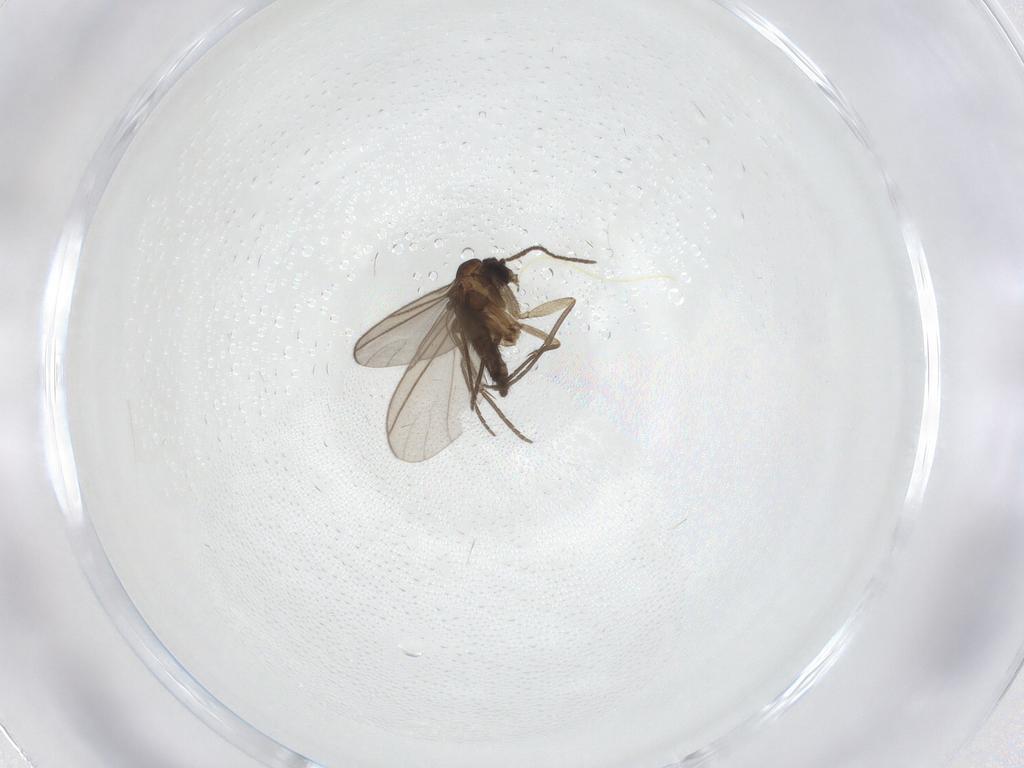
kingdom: Animalia
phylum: Arthropoda
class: Insecta
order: Diptera
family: Sciaridae
